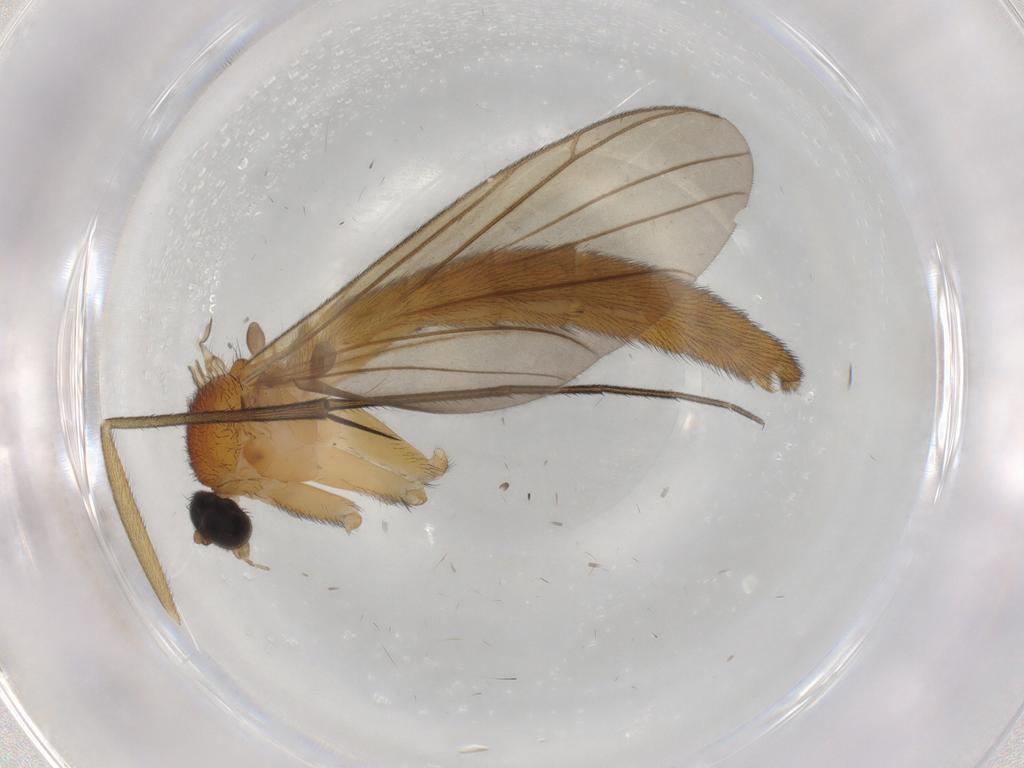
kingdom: Animalia
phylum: Arthropoda
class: Insecta
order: Diptera
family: Keroplatidae
